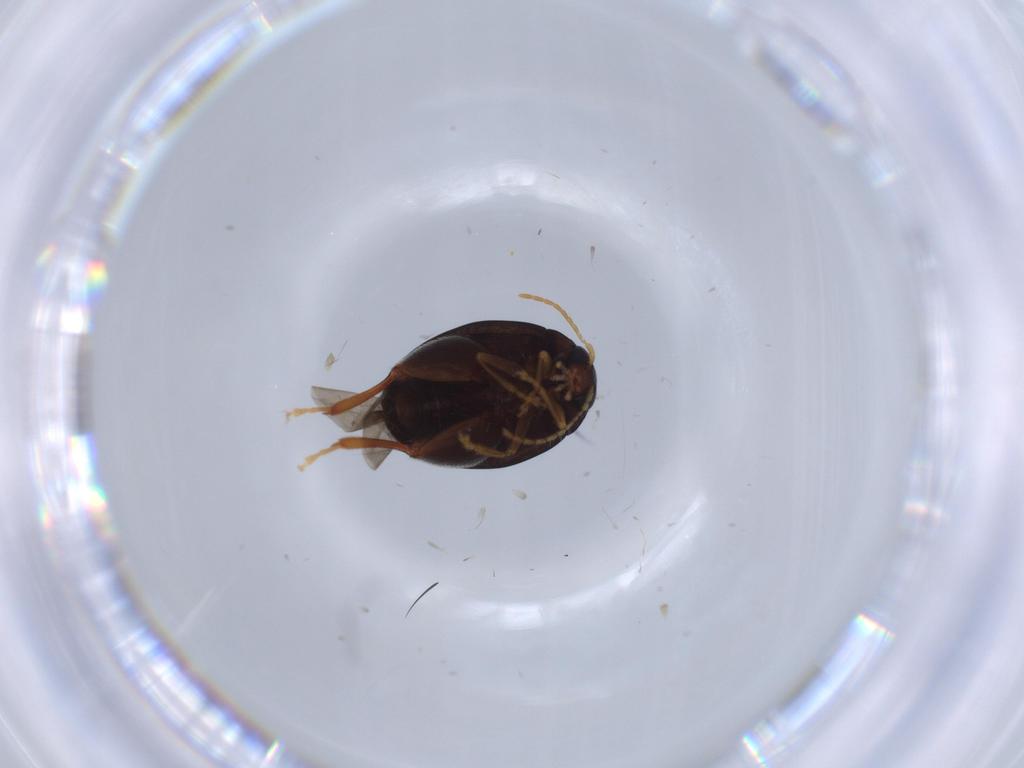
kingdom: Animalia
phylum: Arthropoda
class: Insecta
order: Coleoptera
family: Chrysomelidae
